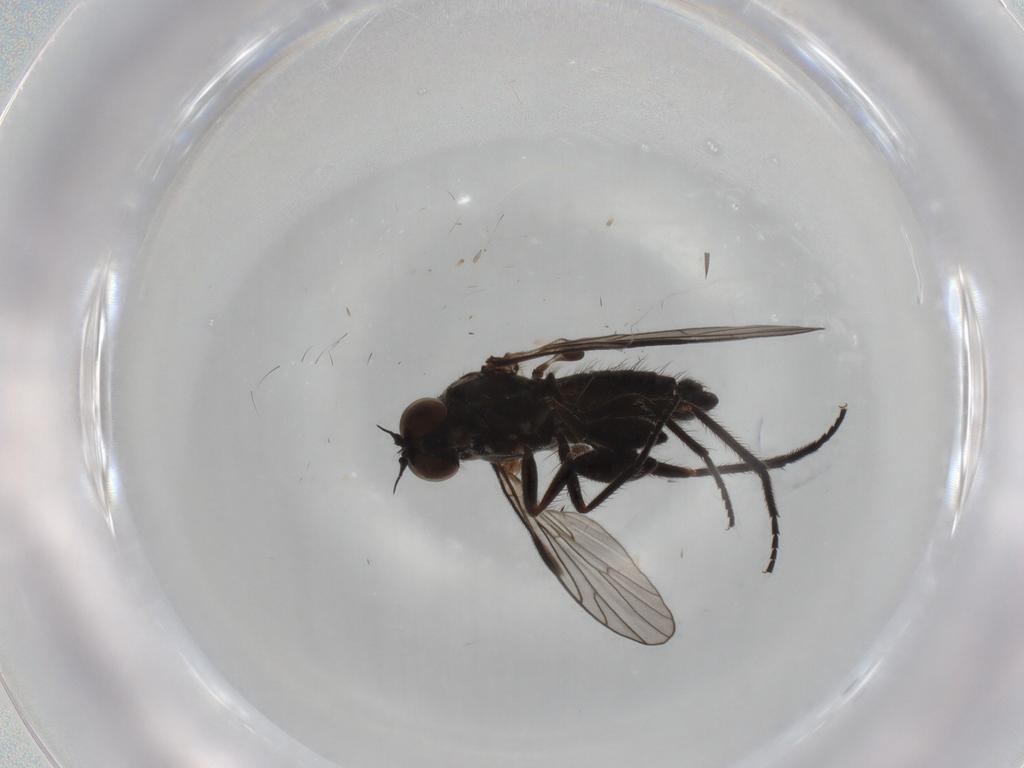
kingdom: Animalia
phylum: Arthropoda
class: Insecta
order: Diptera
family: Empididae
